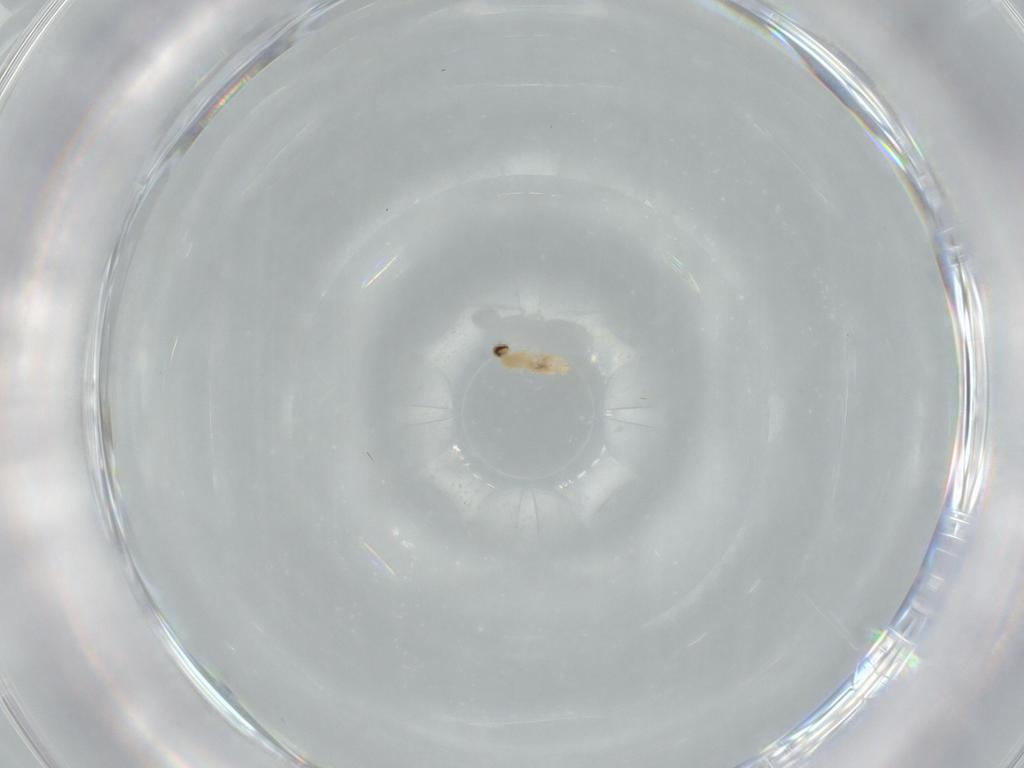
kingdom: Animalia
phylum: Arthropoda
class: Insecta
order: Diptera
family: Cecidomyiidae
